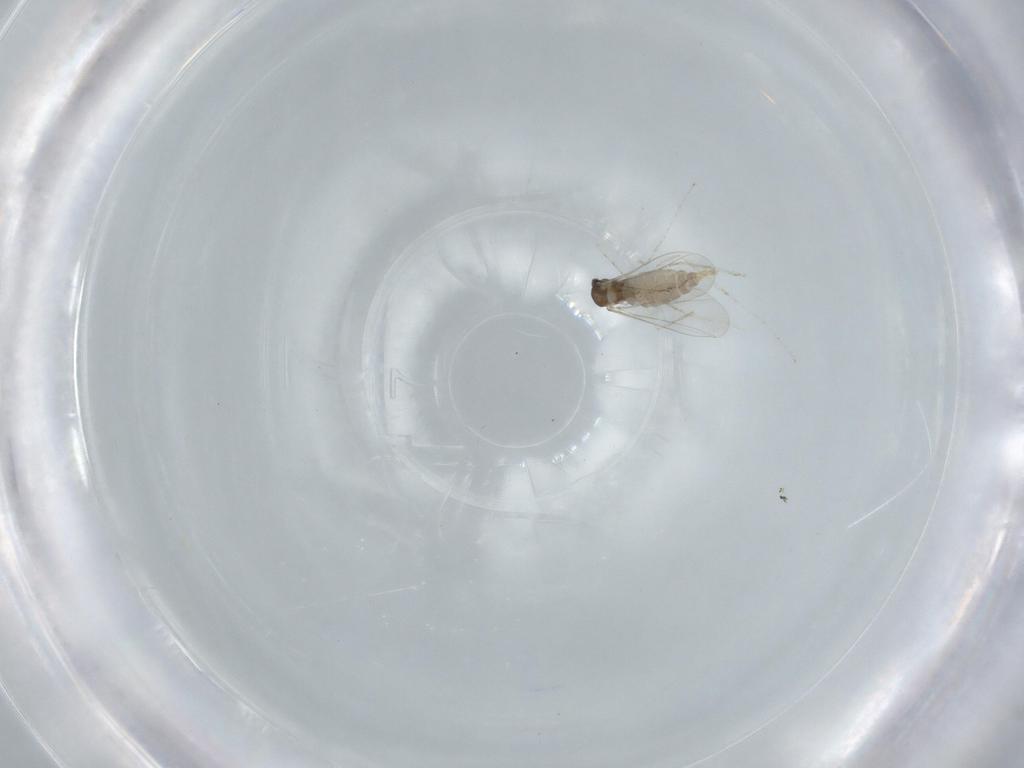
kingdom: Animalia
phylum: Arthropoda
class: Insecta
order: Diptera
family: Cecidomyiidae
